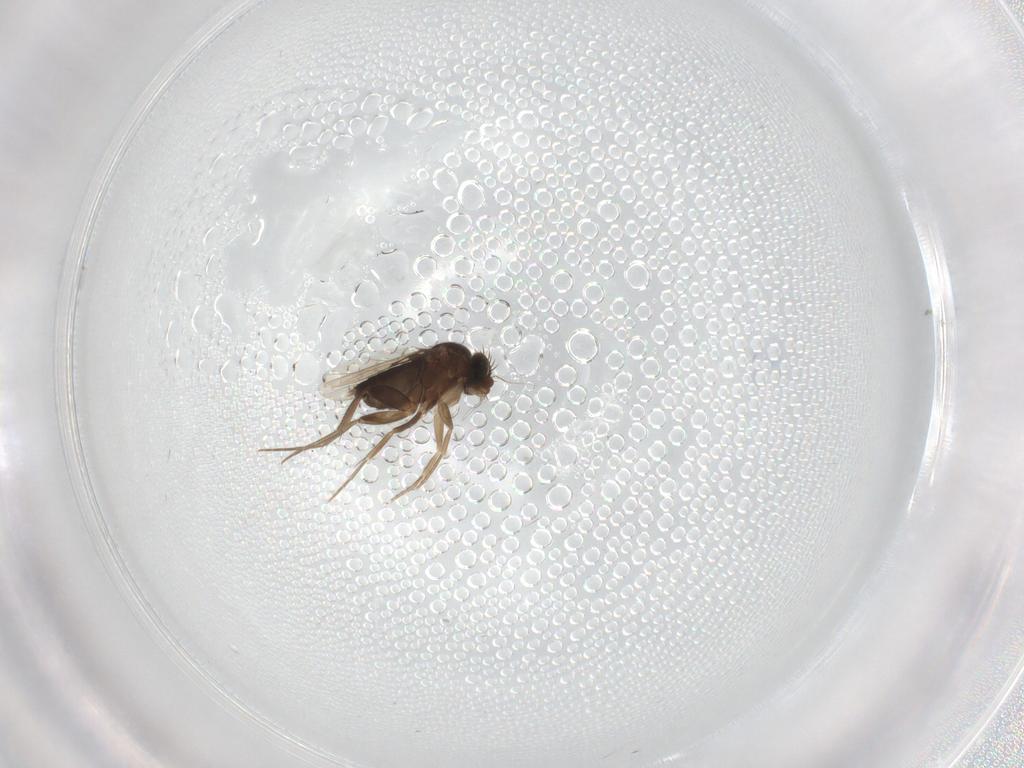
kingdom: Animalia
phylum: Arthropoda
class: Insecta
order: Diptera
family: Phoridae
